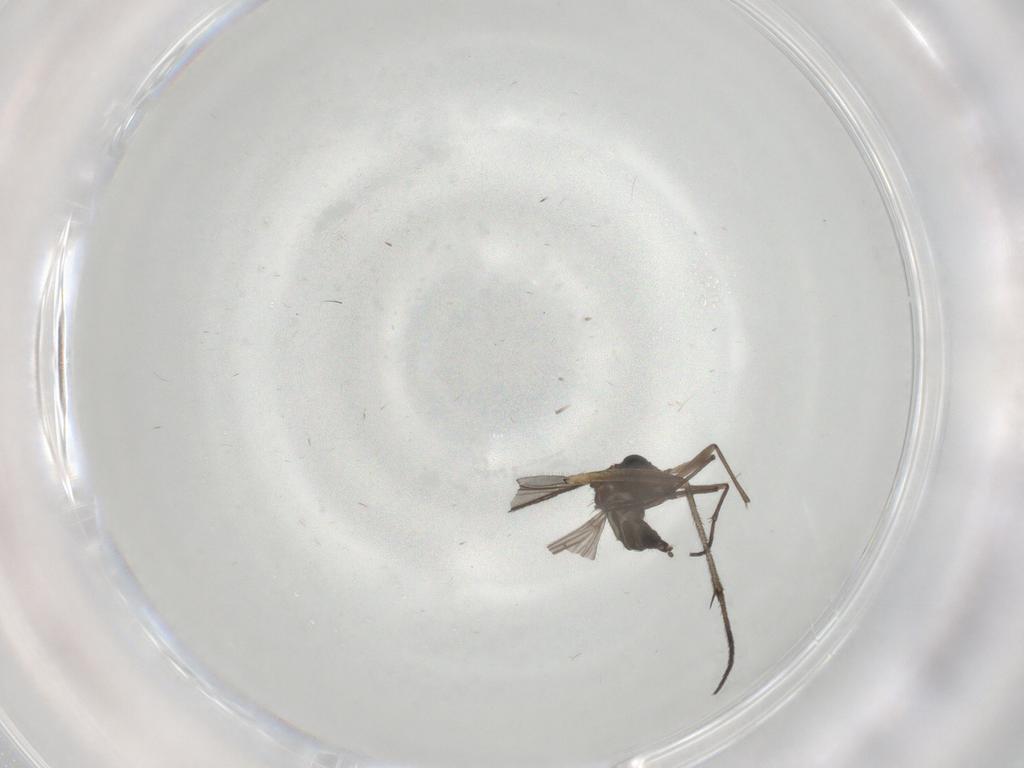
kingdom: Animalia
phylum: Arthropoda
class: Insecta
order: Diptera
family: Sciaridae
